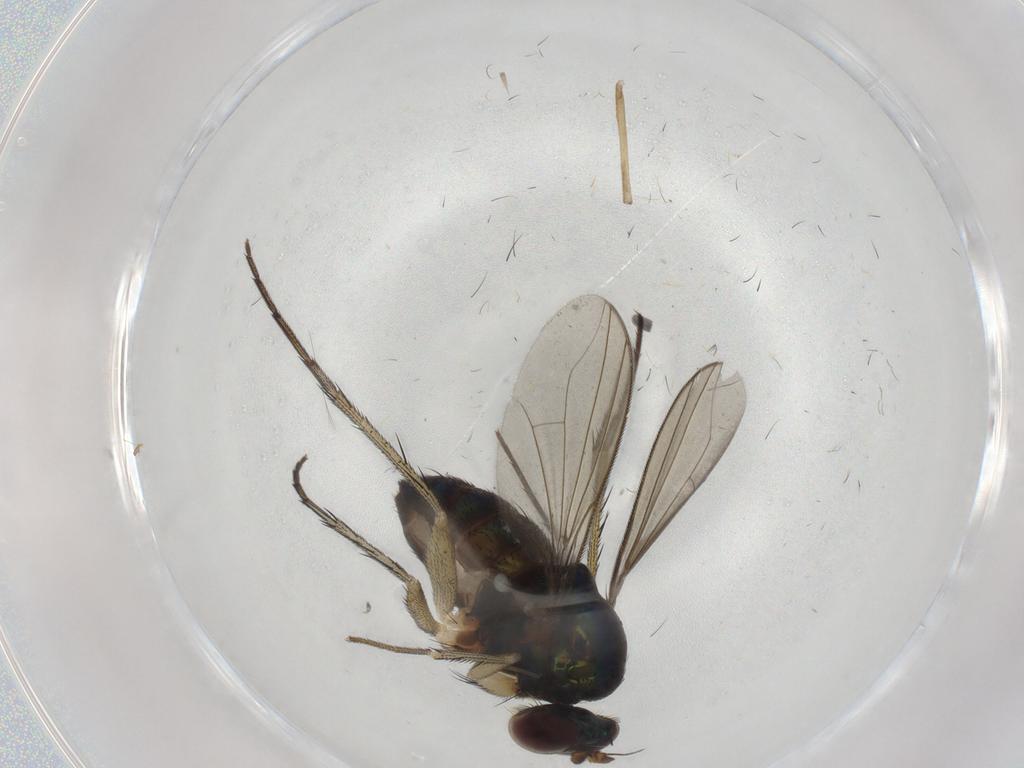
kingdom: Animalia
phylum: Arthropoda
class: Insecta
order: Diptera
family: Dolichopodidae
